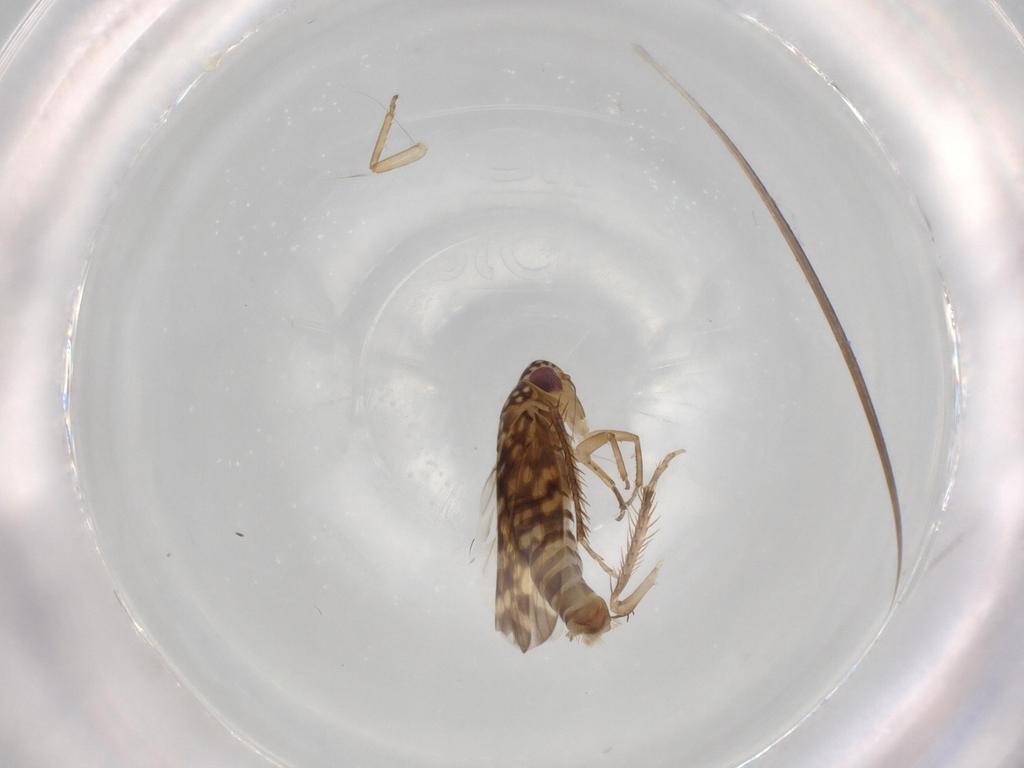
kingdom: Animalia
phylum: Arthropoda
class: Insecta
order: Hemiptera
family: Cicadellidae
